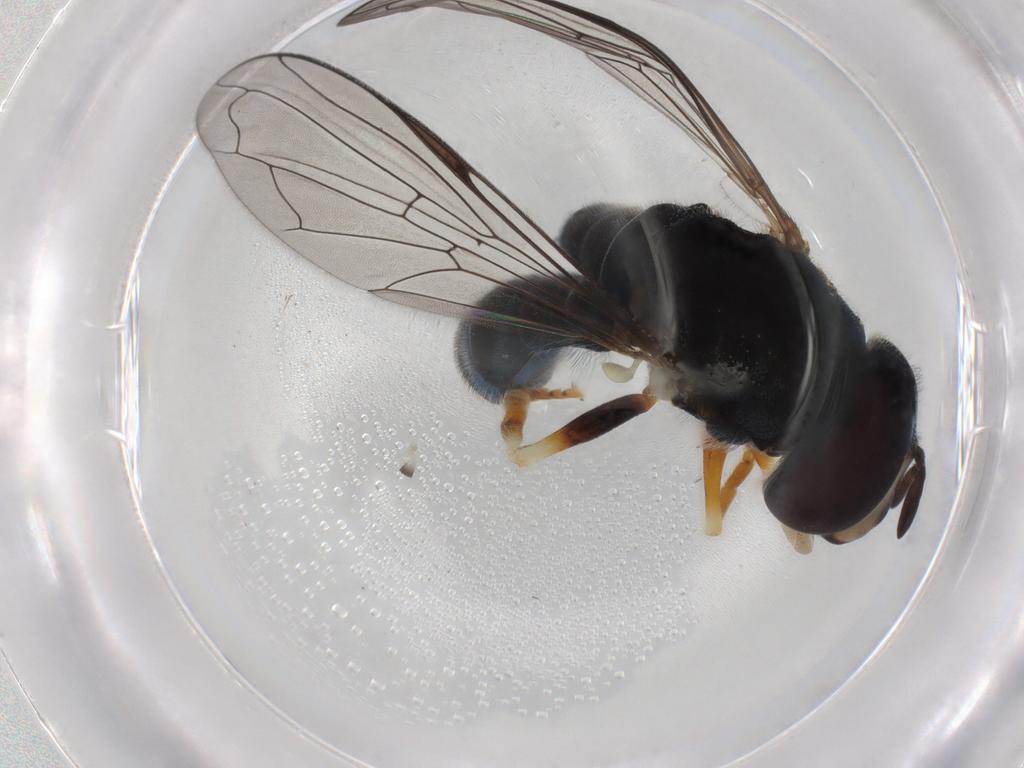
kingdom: Animalia
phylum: Arthropoda
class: Insecta
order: Diptera
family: Syrphidae
